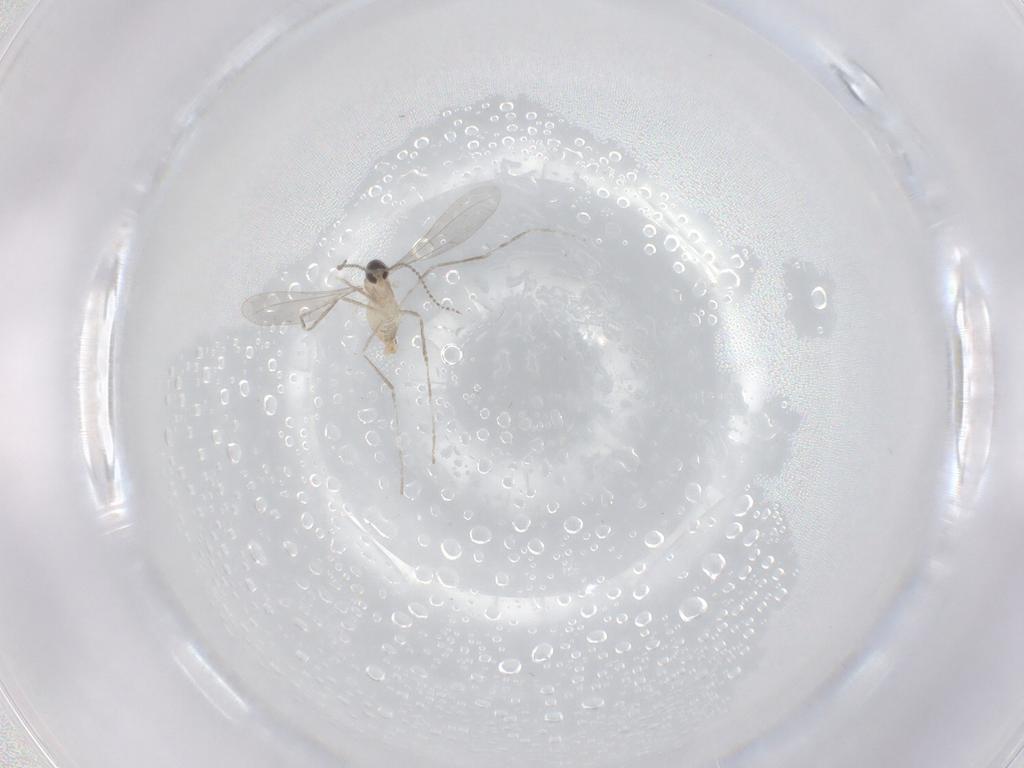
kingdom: Animalia
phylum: Arthropoda
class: Insecta
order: Diptera
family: Cecidomyiidae
